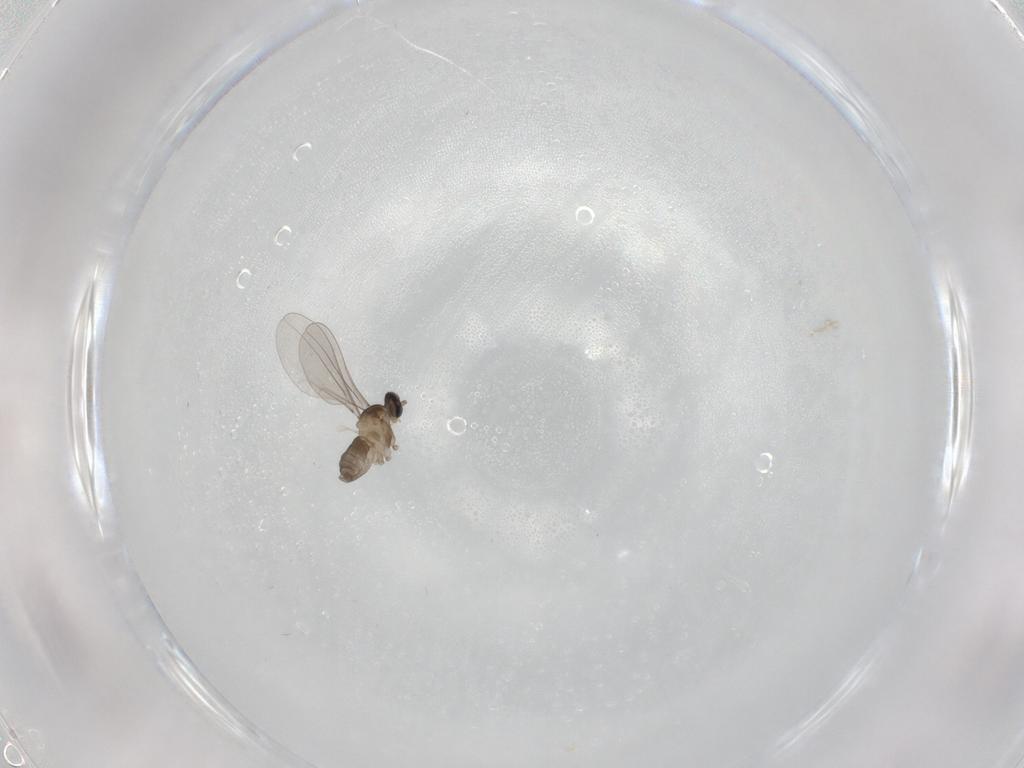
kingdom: Animalia
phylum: Arthropoda
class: Insecta
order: Diptera
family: Cecidomyiidae
